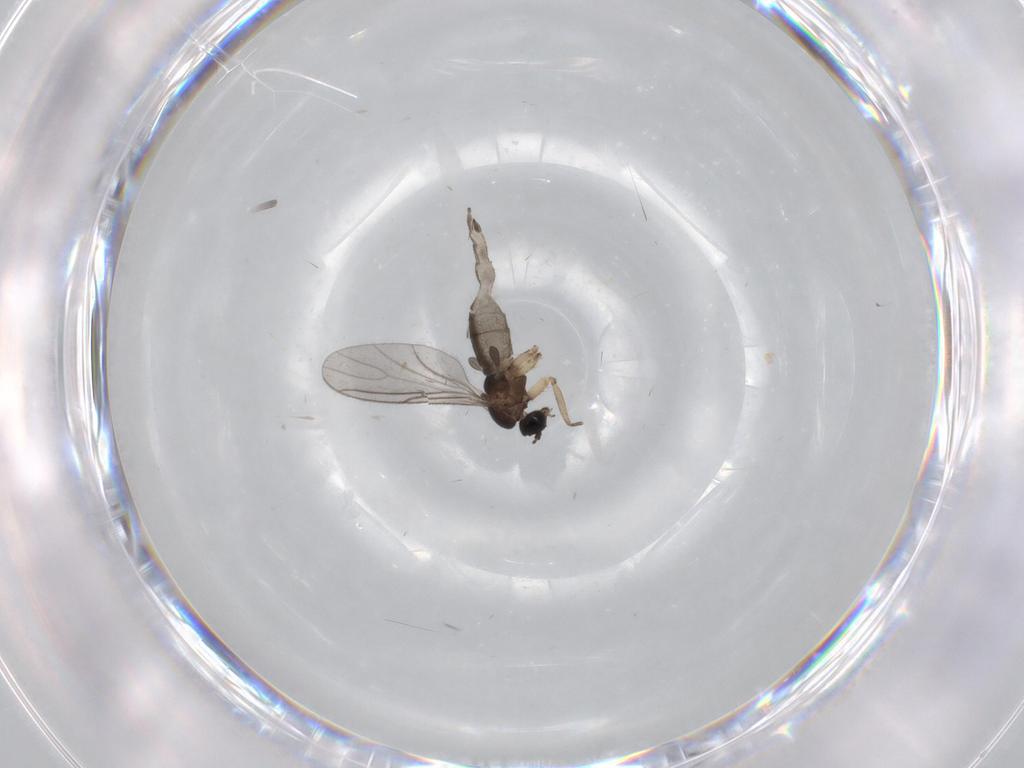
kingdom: Animalia
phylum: Arthropoda
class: Insecta
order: Diptera
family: Sciaridae
